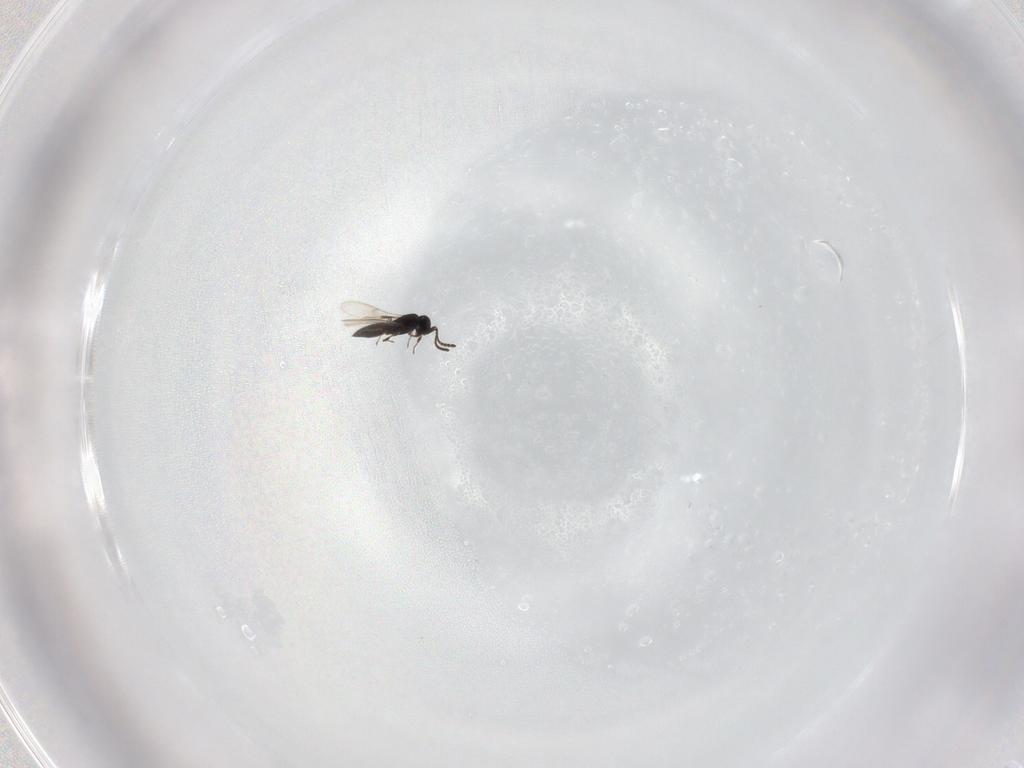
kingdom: Animalia
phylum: Arthropoda
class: Insecta
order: Hymenoptera
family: Scelionidae
